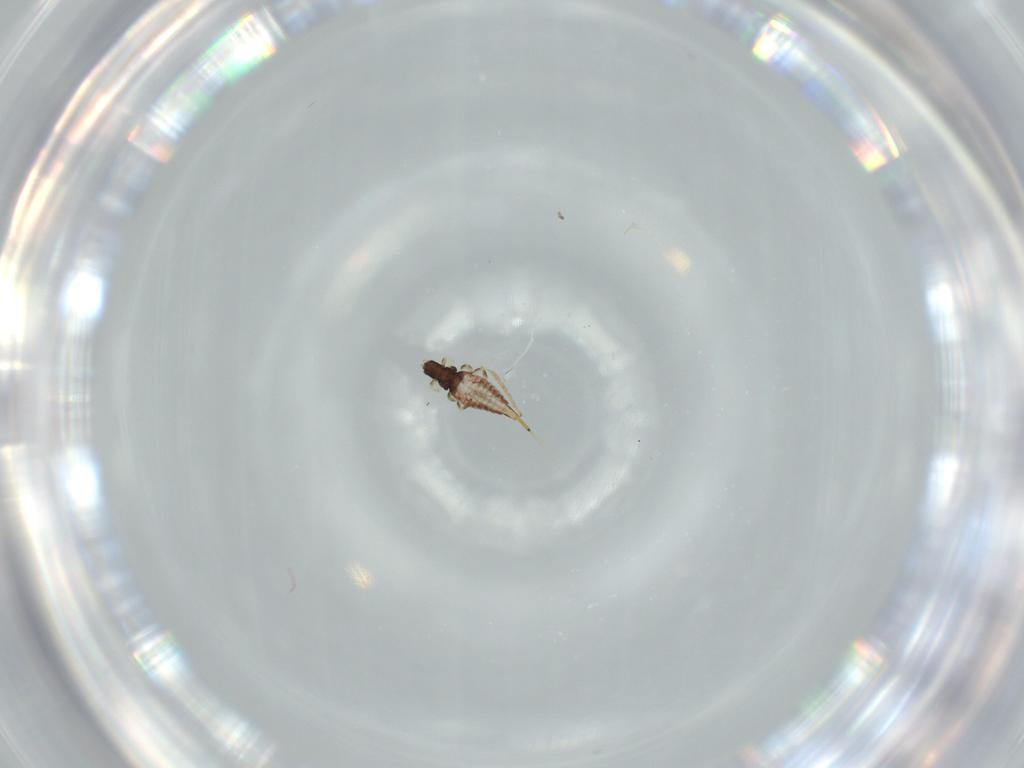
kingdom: Animalia
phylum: Arthropoda
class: Insecta
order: Thysanoptera
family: Phlaeothripidae
